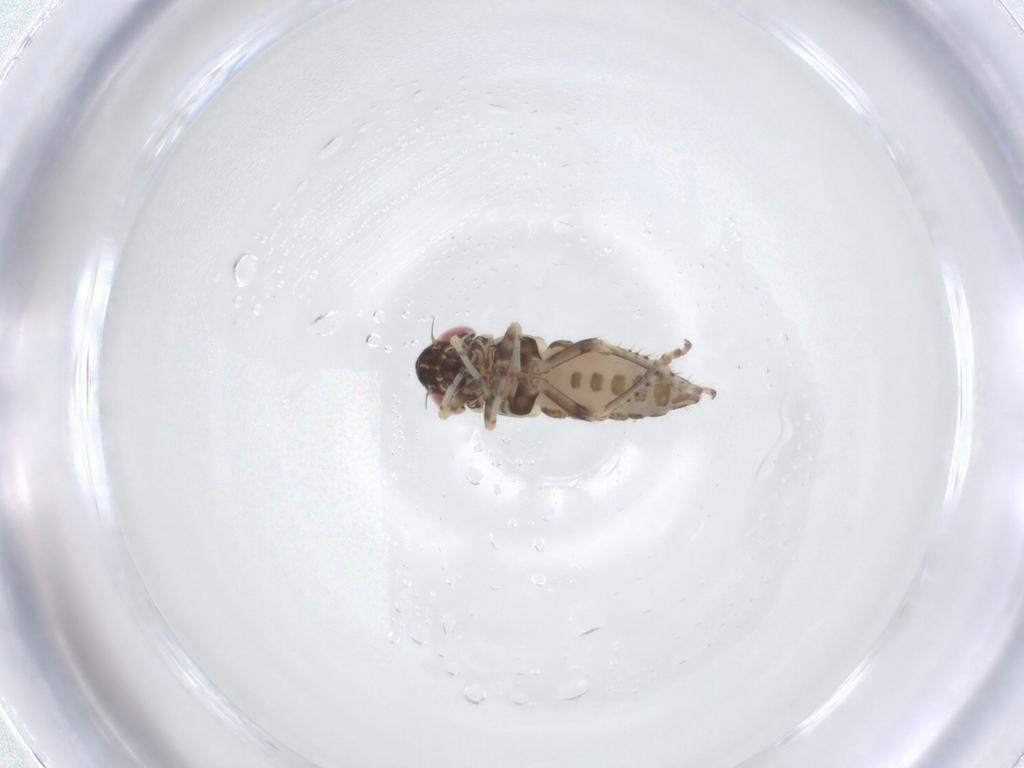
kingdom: Animalia
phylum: Arthropoda
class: Insecta
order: Hemiptera
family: Cicadellidae
